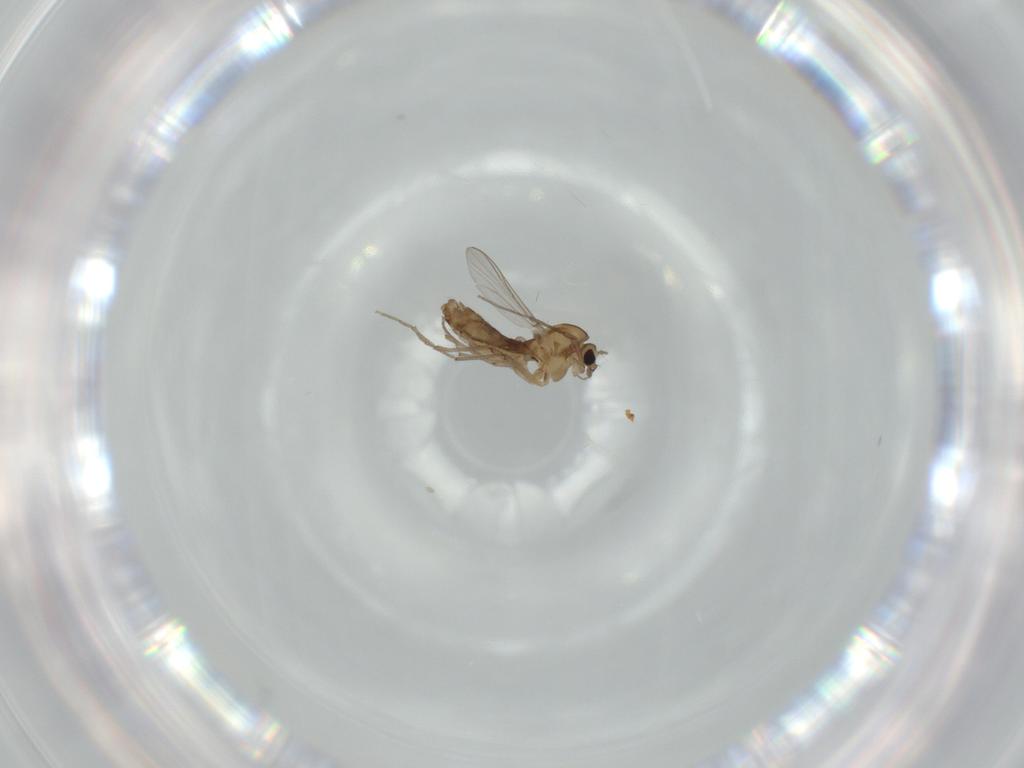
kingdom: Animalia
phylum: Arthropoda
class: Insecta
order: Diptera
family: Chironomidae
